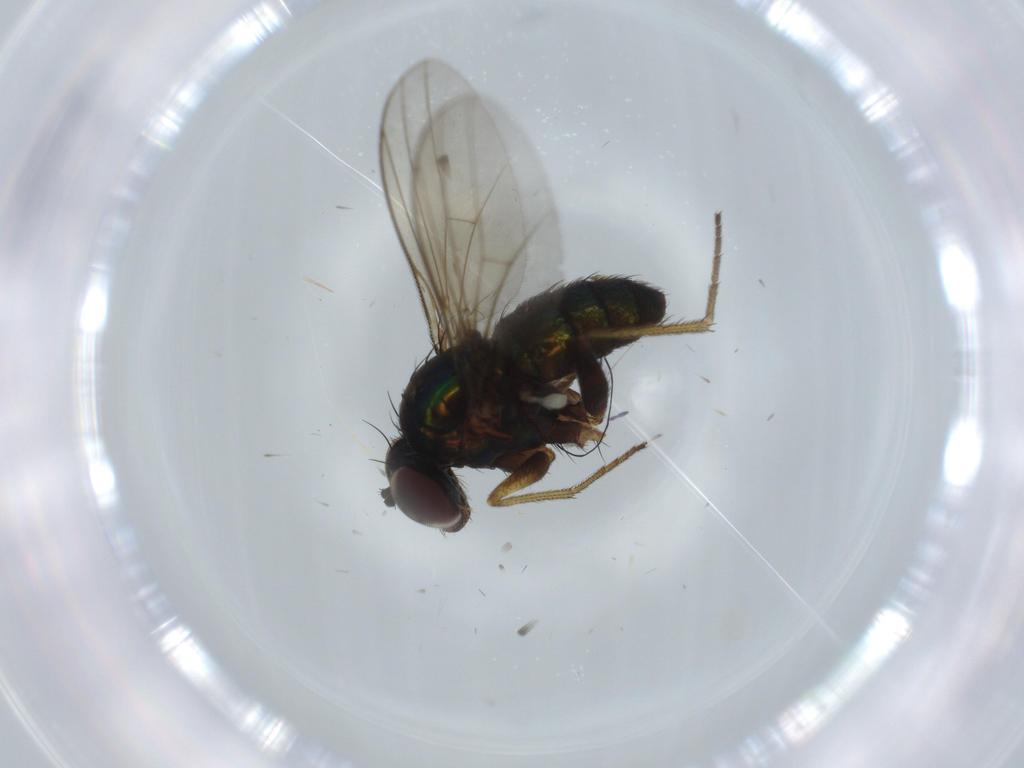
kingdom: Animalia
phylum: Arthropoda
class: Insecta
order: Diptera
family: Dolichopodidae
